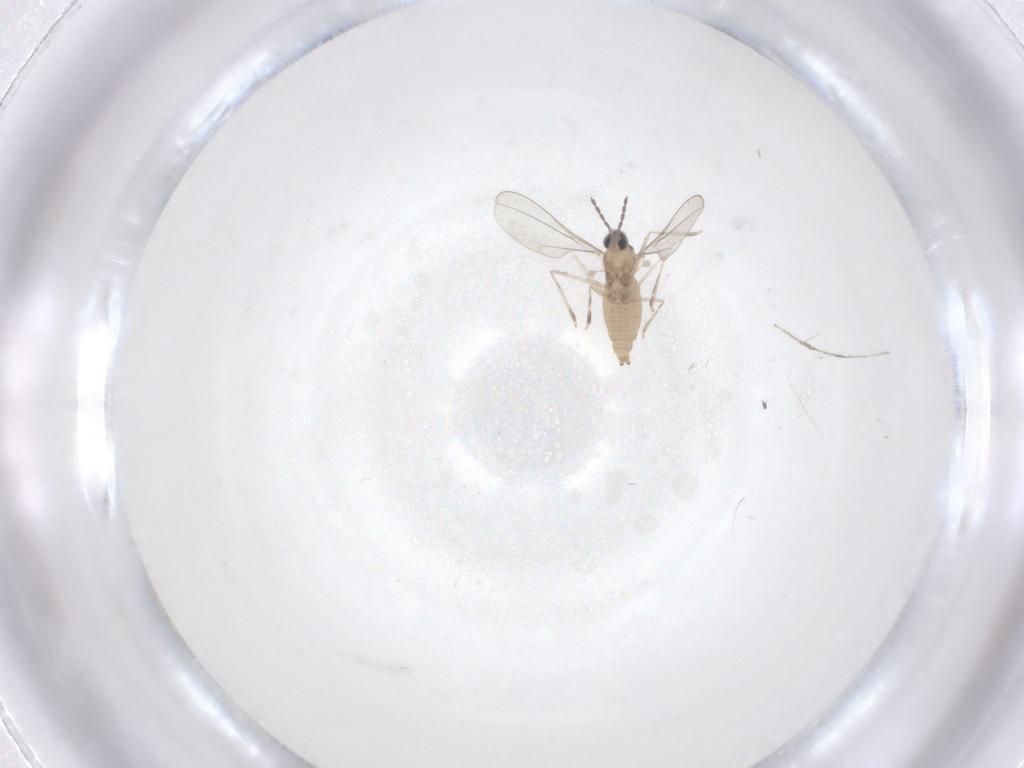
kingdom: Animalia
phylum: Arthropoda
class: Insecta
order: Diptera
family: Cecidomyiidae
